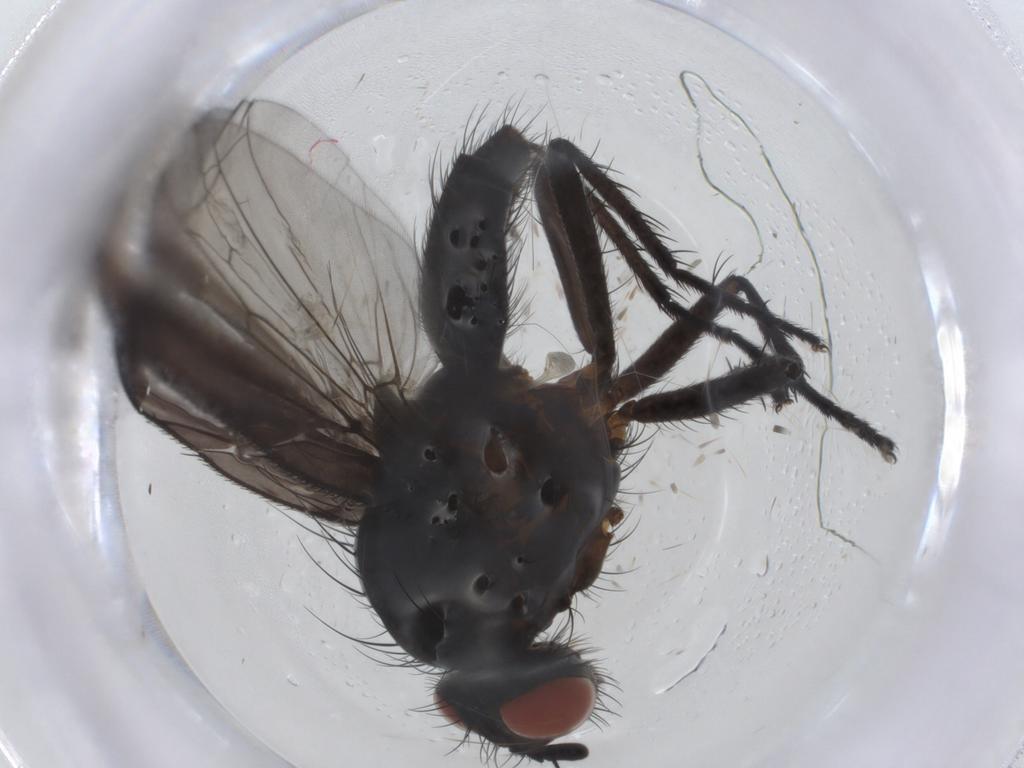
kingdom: Animalia
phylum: Arthropoda
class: Insecta
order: Diptera
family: Anthomyiidae
